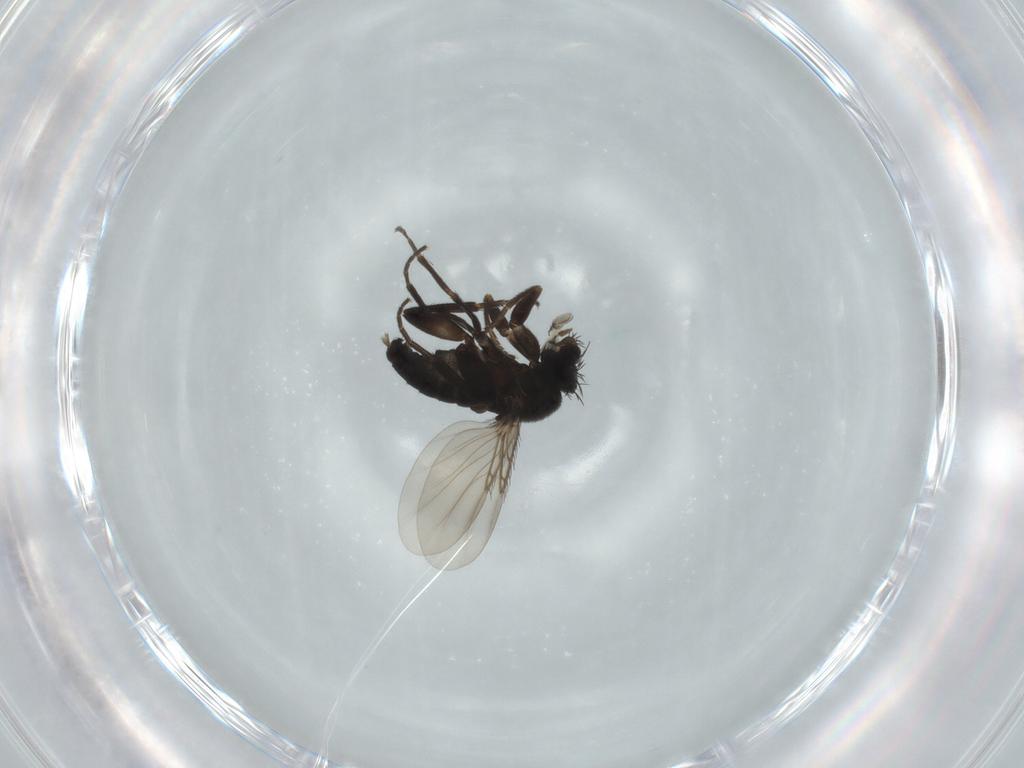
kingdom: Animalia
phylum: Arthropoda
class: Insecta
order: Diptera
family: Phoridae
